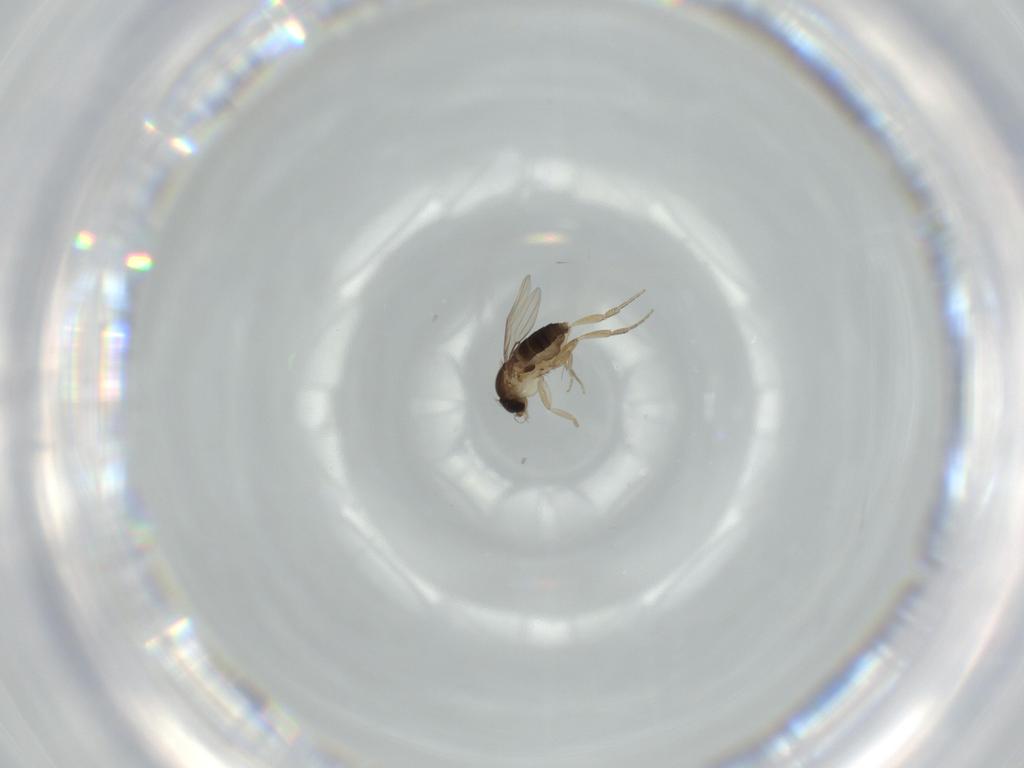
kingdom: Animalia
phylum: Arthropoda
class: Insecta
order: Diptera
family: Phoridae
